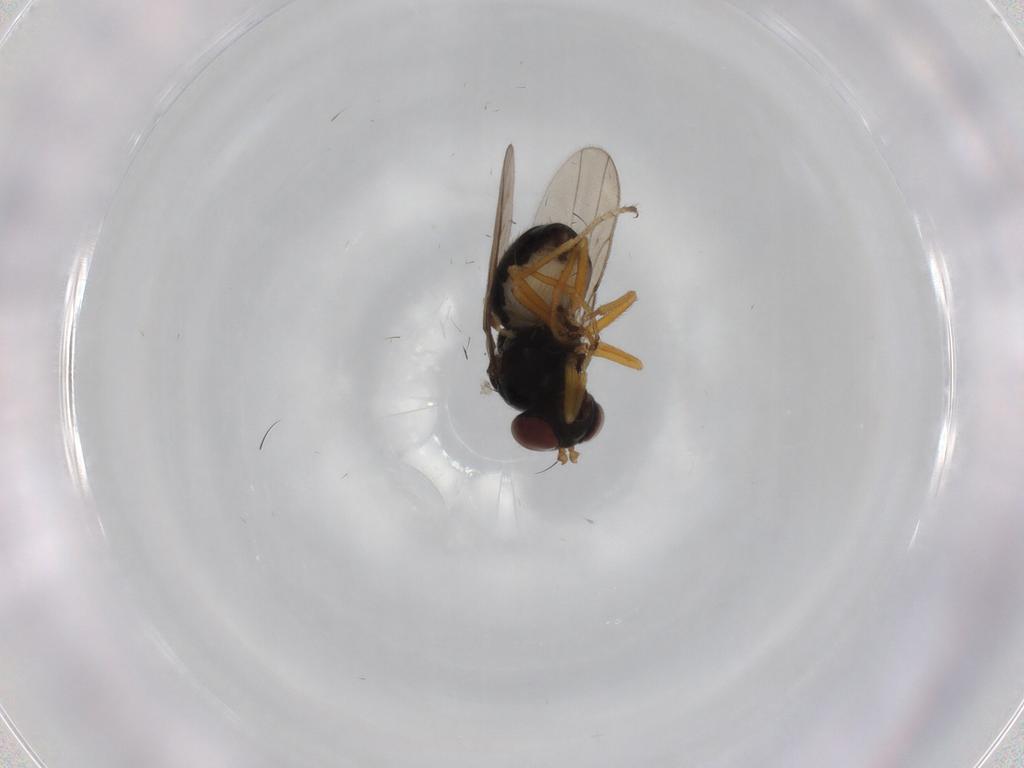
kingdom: Animalia
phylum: Arthropoda
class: Insecta
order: Diptera
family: Ephydridae
